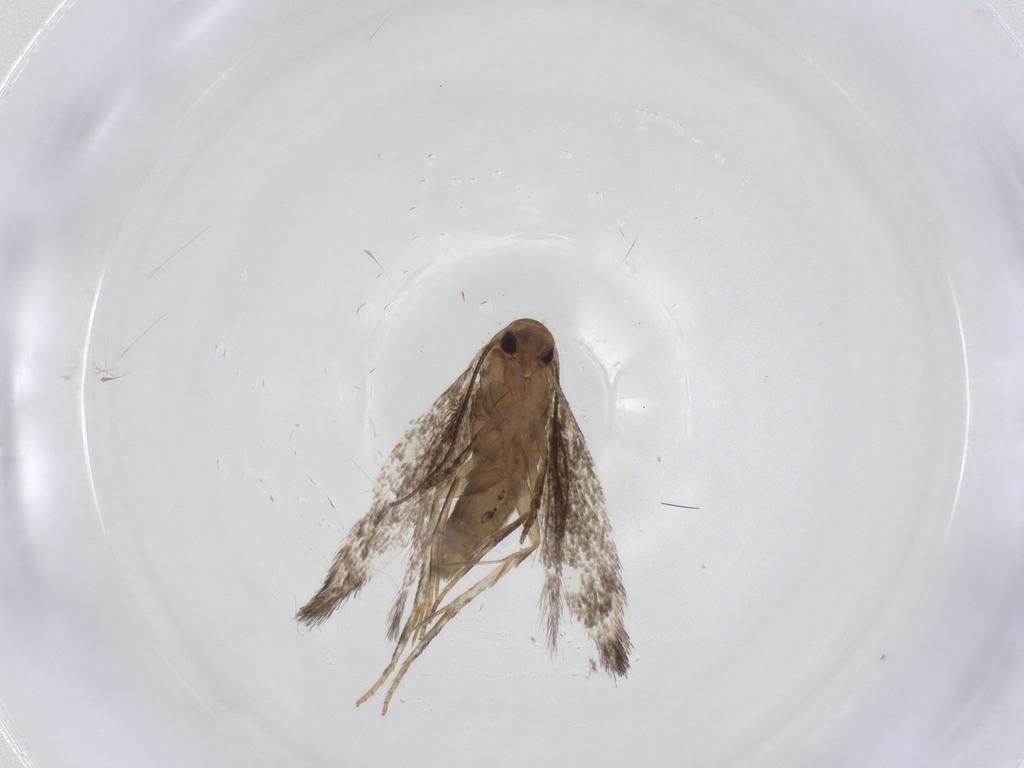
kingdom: Animalia
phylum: Arthropoda
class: Insecta
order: Lepidoptera
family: Gelechiidae
